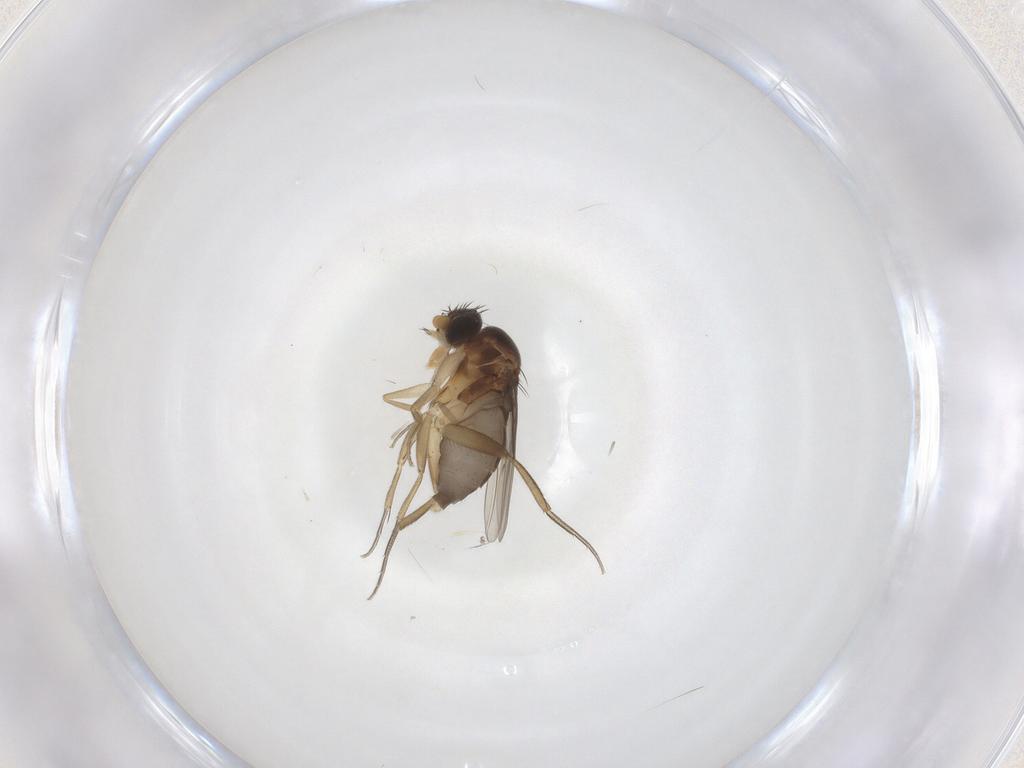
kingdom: Animalia
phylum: Arthropoda
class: Insecta
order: Diptera
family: Phoridae
